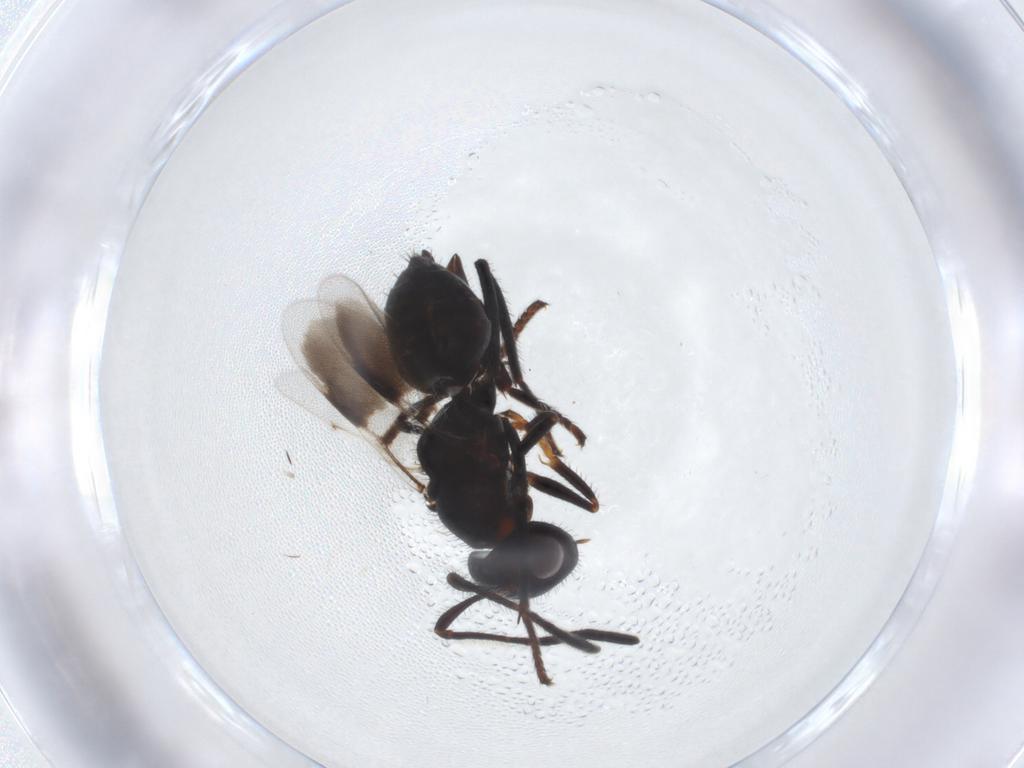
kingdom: Animalia
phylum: Arthropoda
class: Insecta
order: Hymenoptera
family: Encyrtidae
